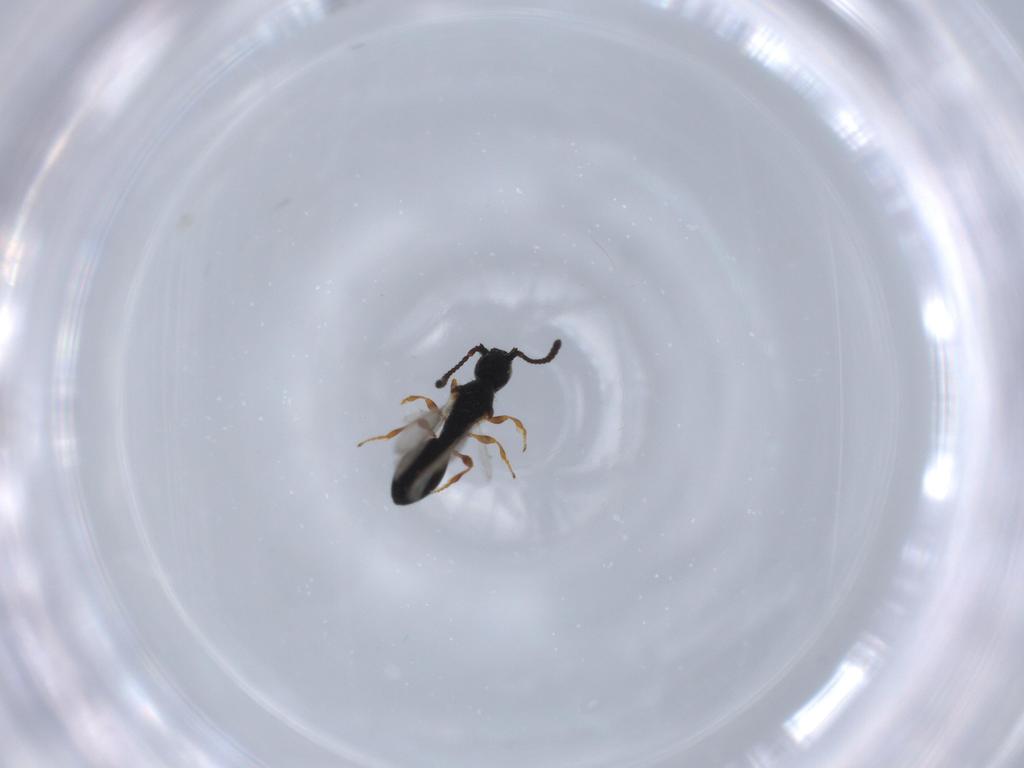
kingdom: Animalia
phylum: Arthropoda
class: Insecta
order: Hymenoptera
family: Diapriidae
